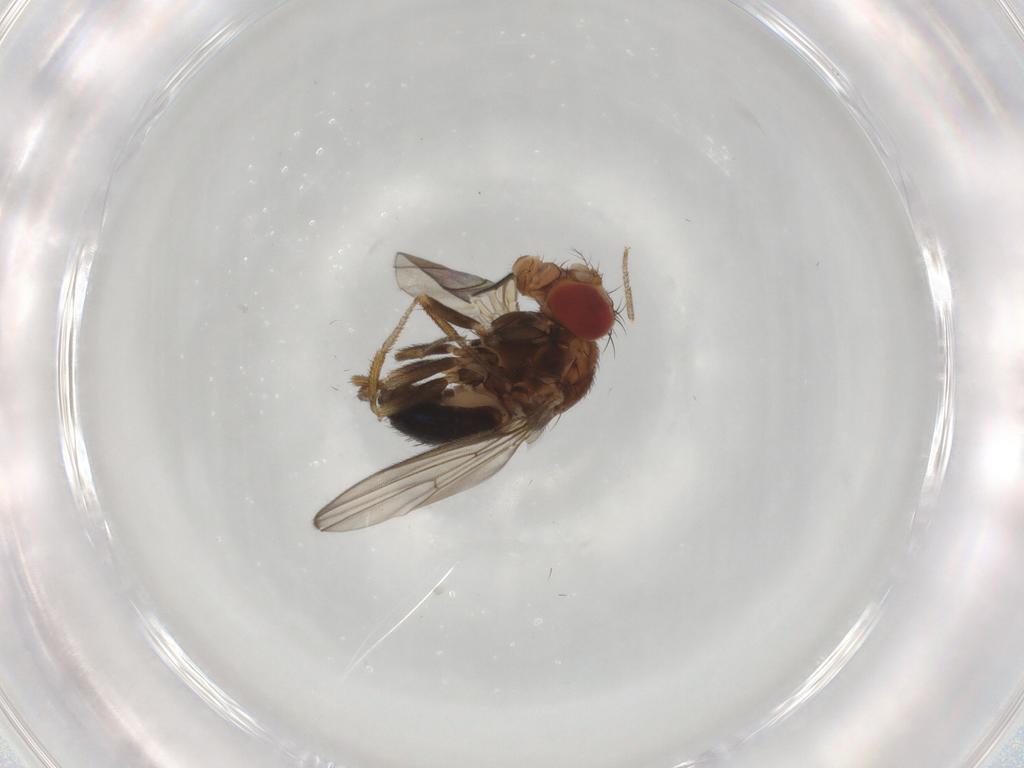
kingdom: Animalia
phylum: Arthropoda
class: Insecta
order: Diptera
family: Drosophilidae
